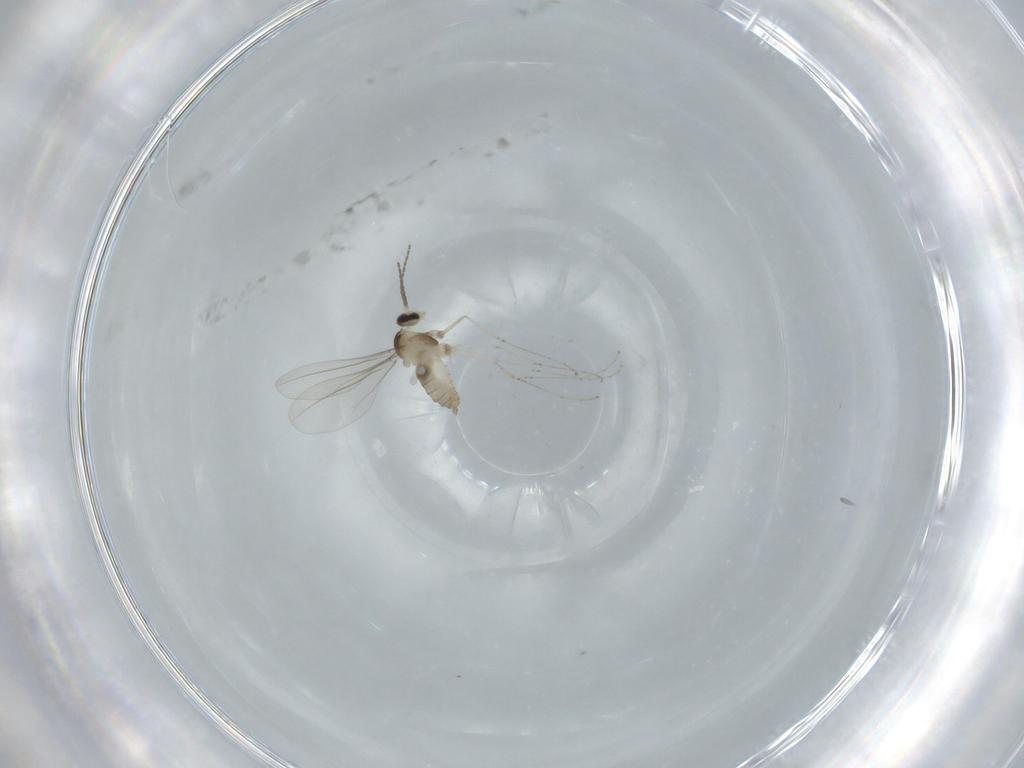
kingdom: Animalia
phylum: Arthropoda
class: Insecta
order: Diptera
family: Cecidomyiidae
